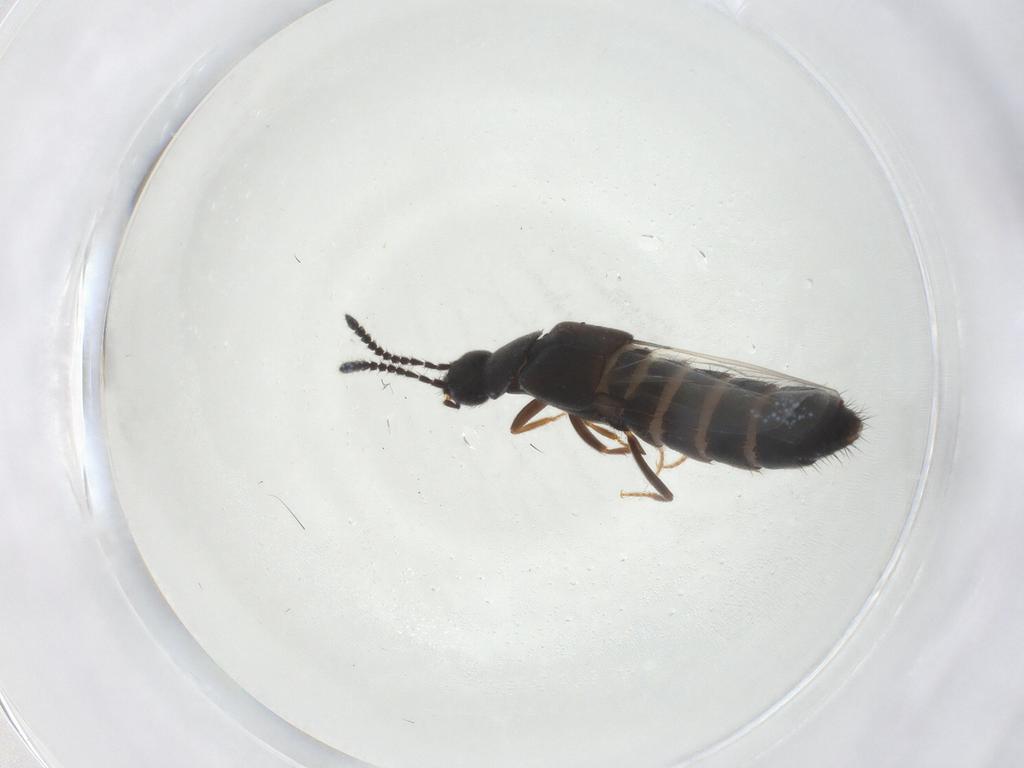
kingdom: Animalia
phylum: Arthropoda
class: Insecta
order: Coleoptera
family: Staphylinidae
